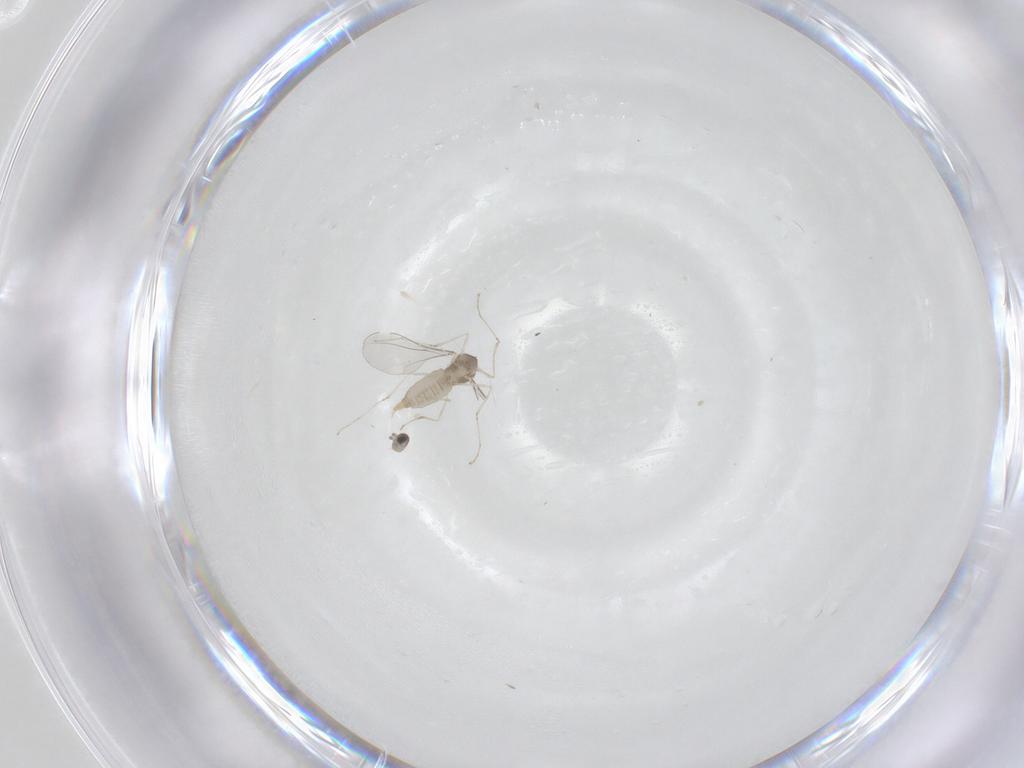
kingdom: Animalia
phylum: Arthropoda
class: Insecta
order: Diptera
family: Cecidomyiidae
